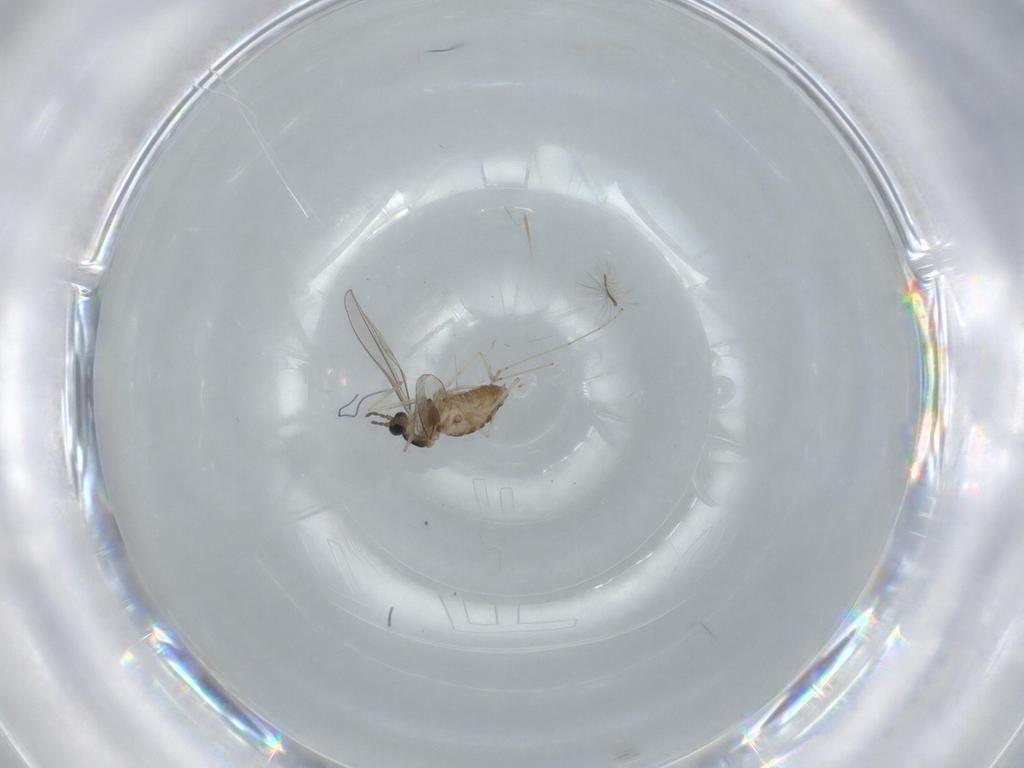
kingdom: Animalia
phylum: Arthropoda
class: Insecta
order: Diptera
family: Cecidomyiidae
